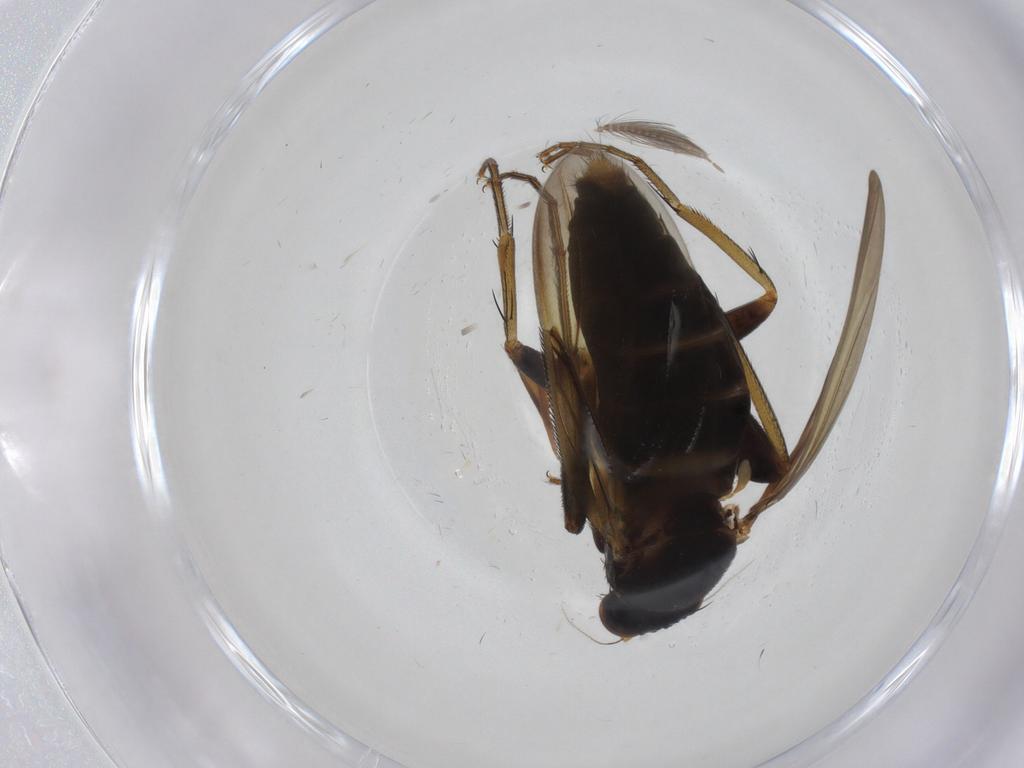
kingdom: Animalia
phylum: Arthropoda
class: Insecta
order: Diptera
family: Phoridae
